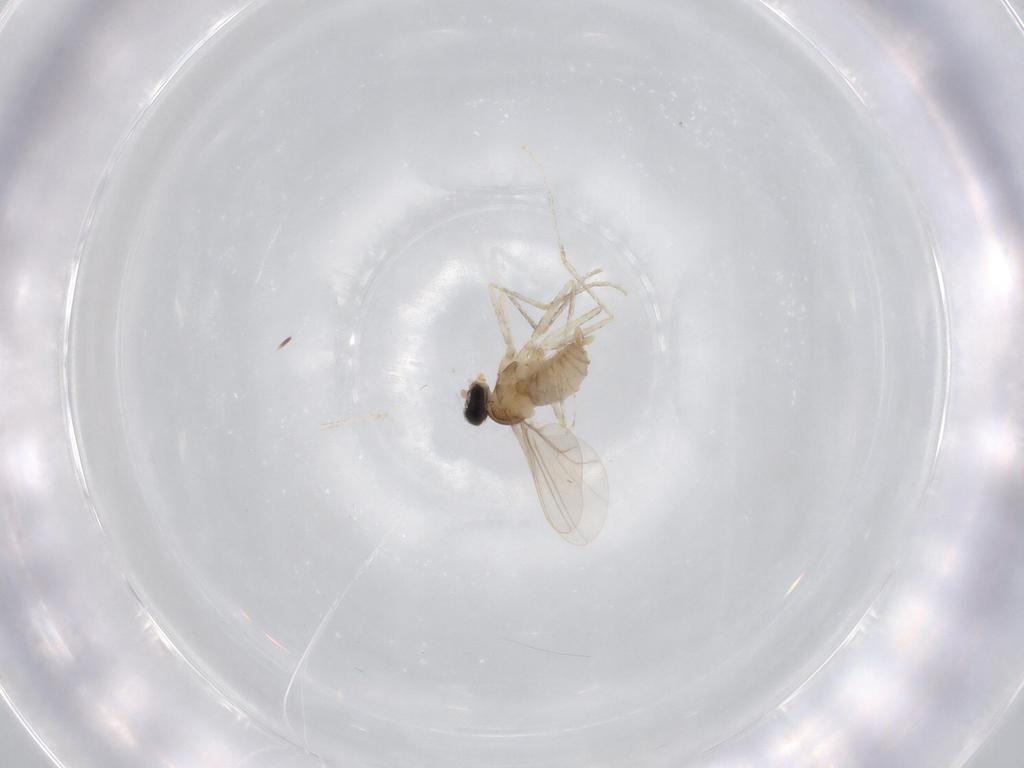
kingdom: Animalia
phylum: Arthropoda
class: Insecta
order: Diptera
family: Cecidomyiidae
